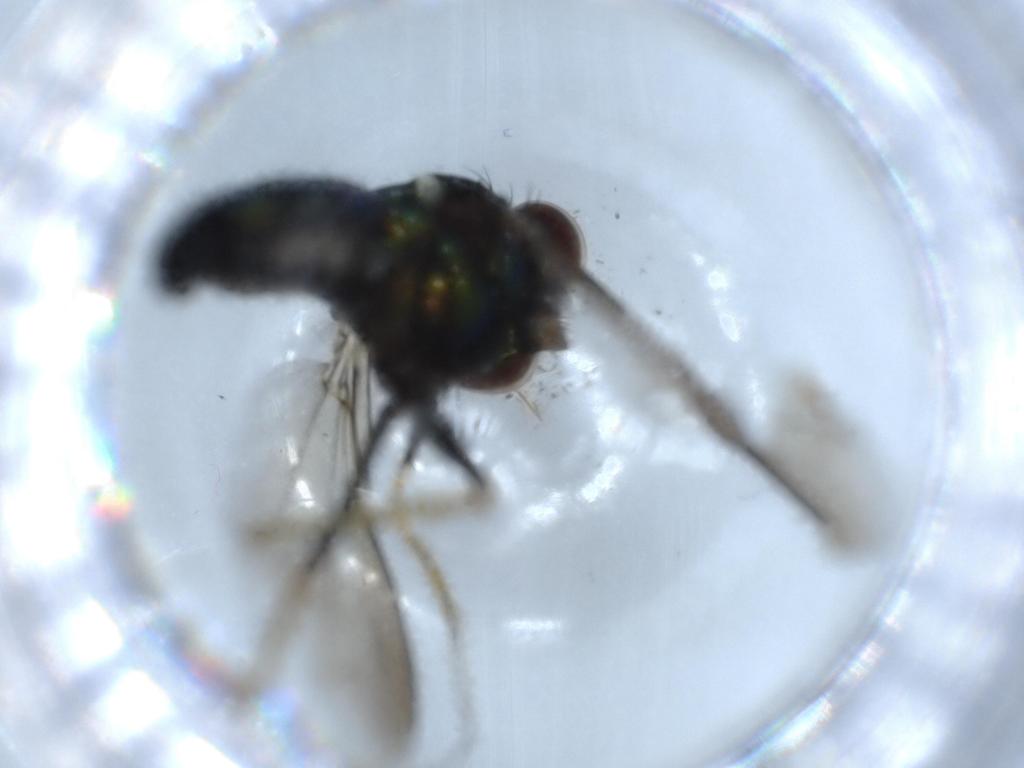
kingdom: Animalia
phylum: Arthropoda
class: Insecta
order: Diptera
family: Dolichopodidae
